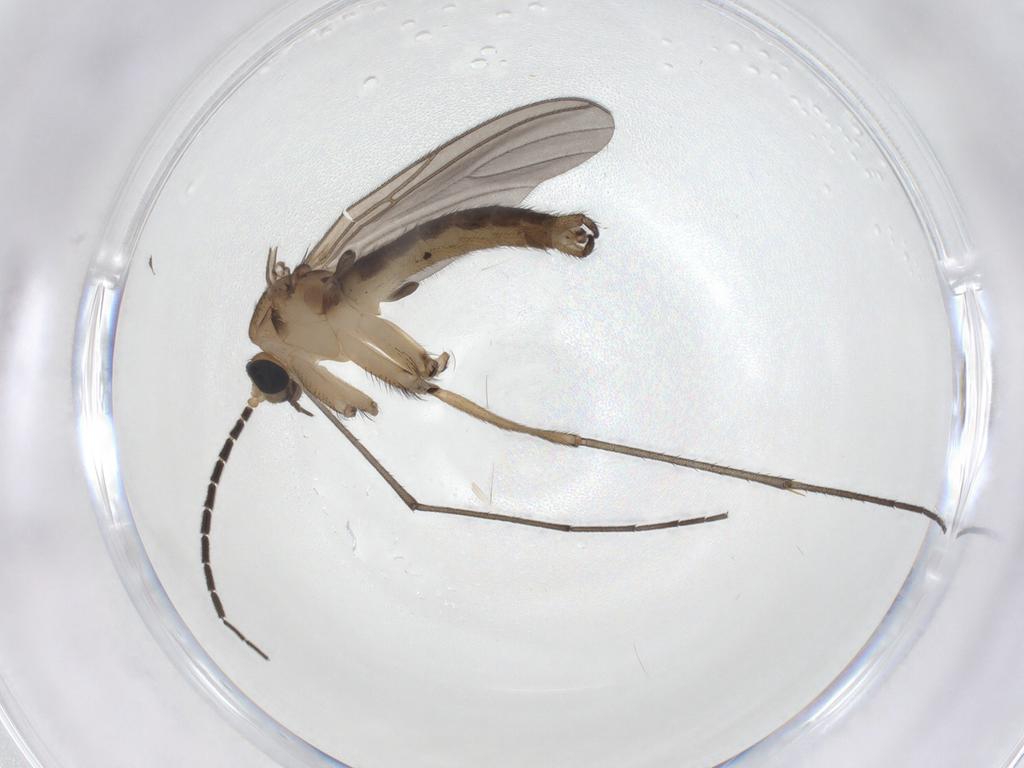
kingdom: Animalia
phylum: Arthropoda
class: Insecta
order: Diptera
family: Sciaridae
